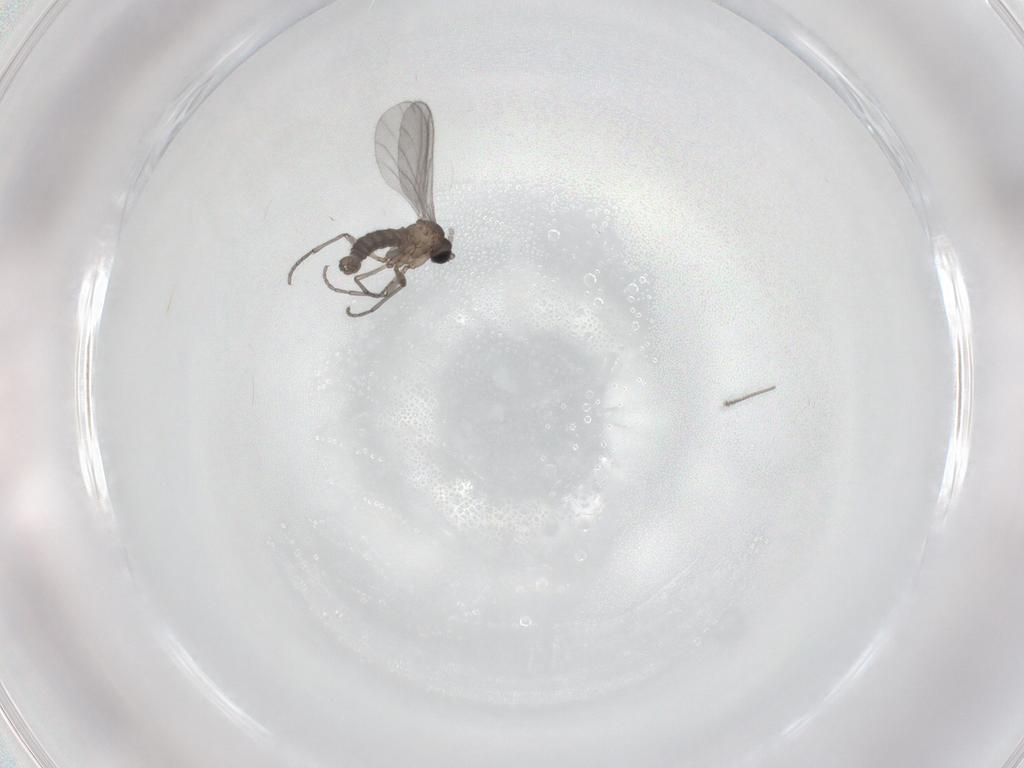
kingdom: Animalia
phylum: Arthropoda
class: Insecta
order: Diptera
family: Sciaridae
